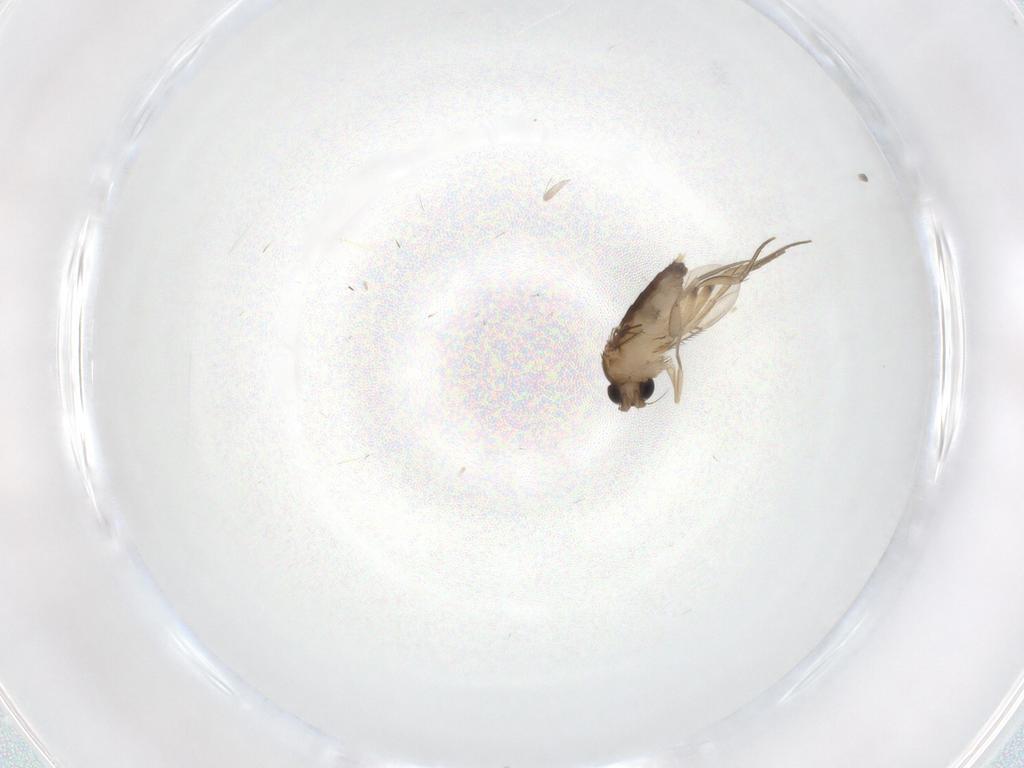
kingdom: Animalia
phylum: Arthropoda
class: Insecta
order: Diptera
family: Phoridae
